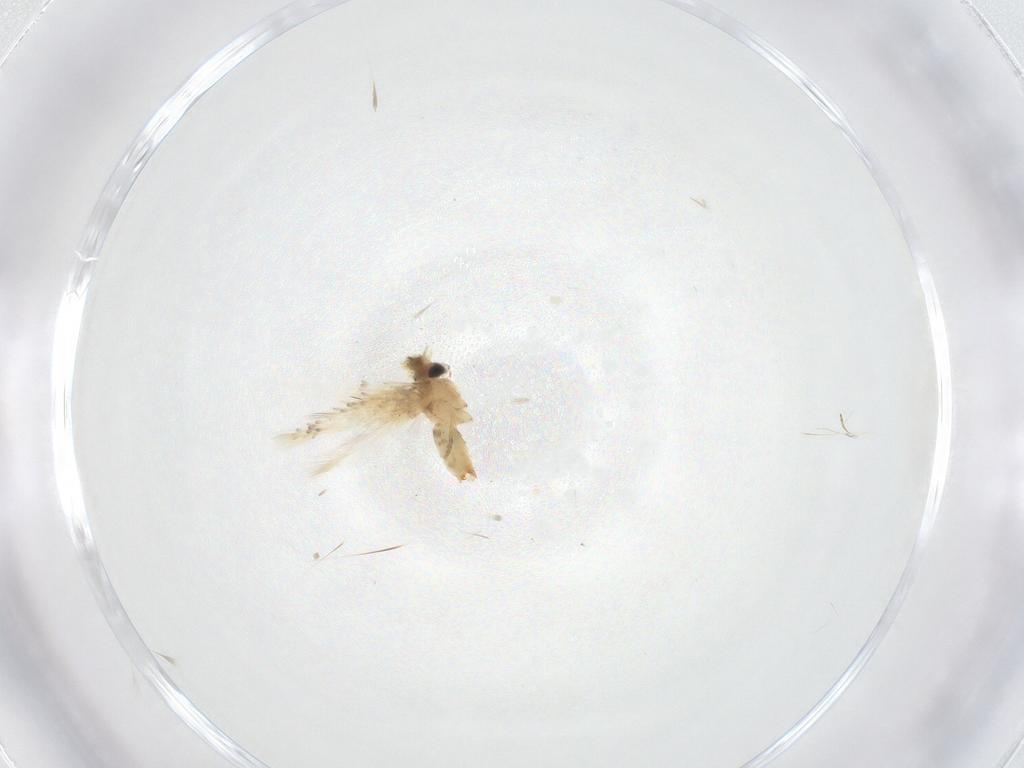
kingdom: Animalia
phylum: Arthropoda
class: Insecta
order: Lepidoptera
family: Crambidae
